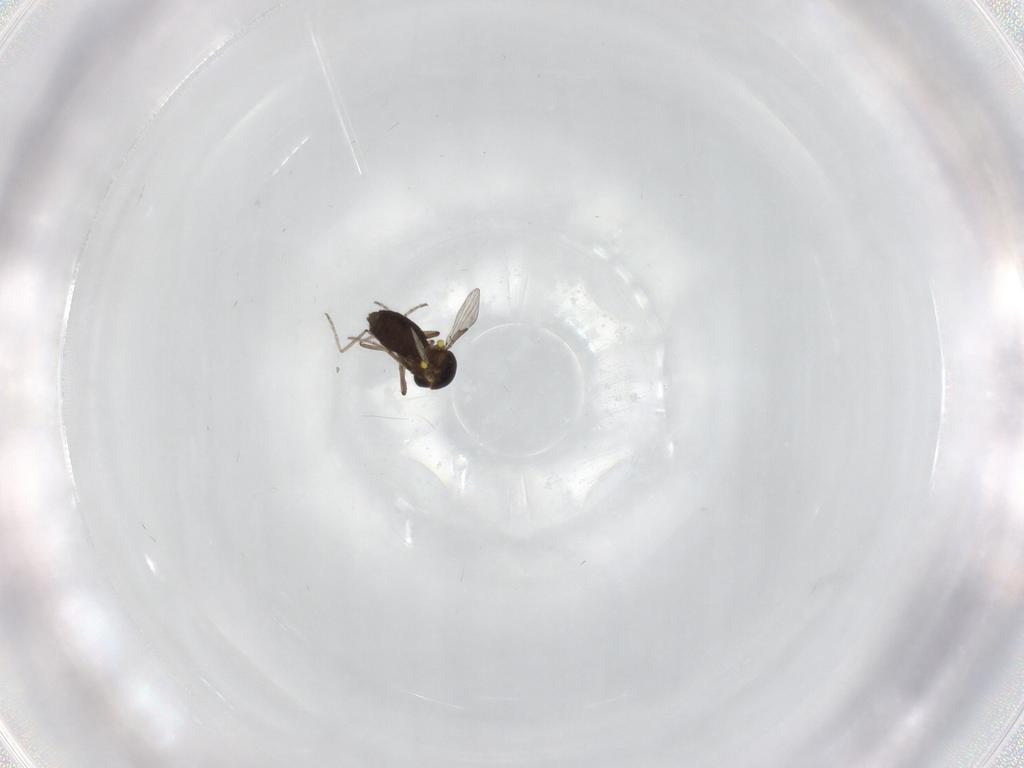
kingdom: Animalia
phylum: Arthropoda
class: Insecta
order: Diptera
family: Ceratopogonidae
